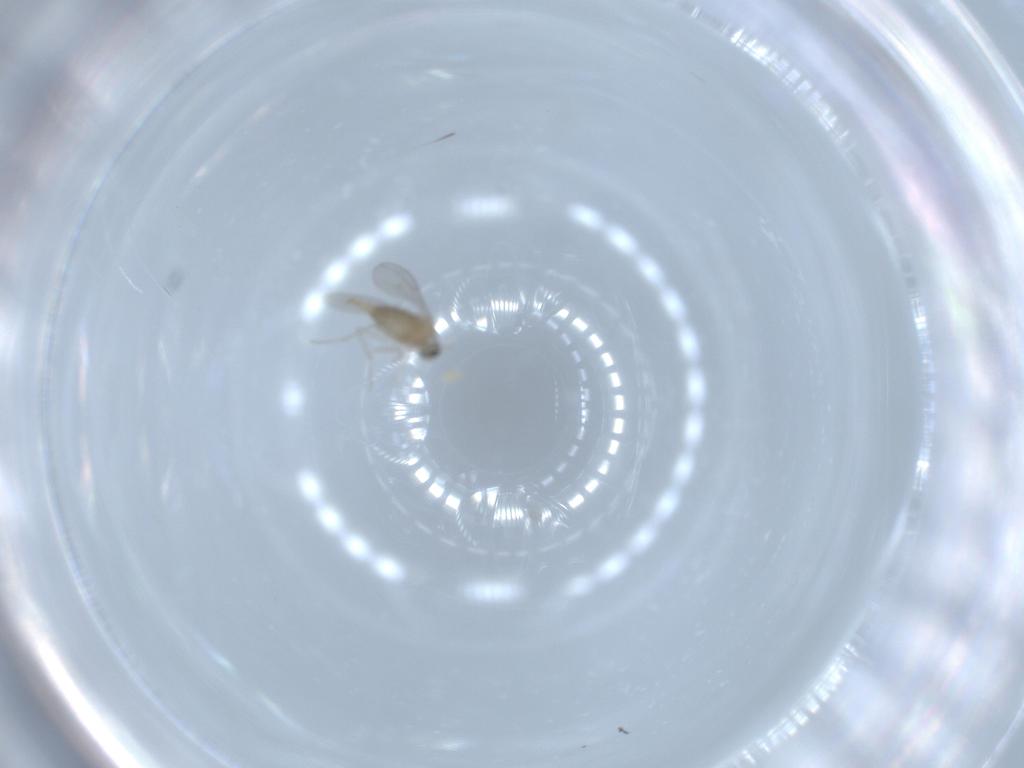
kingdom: Animalia
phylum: Arthropoda
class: Insecta
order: Diptera
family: Cecidomyiidae
